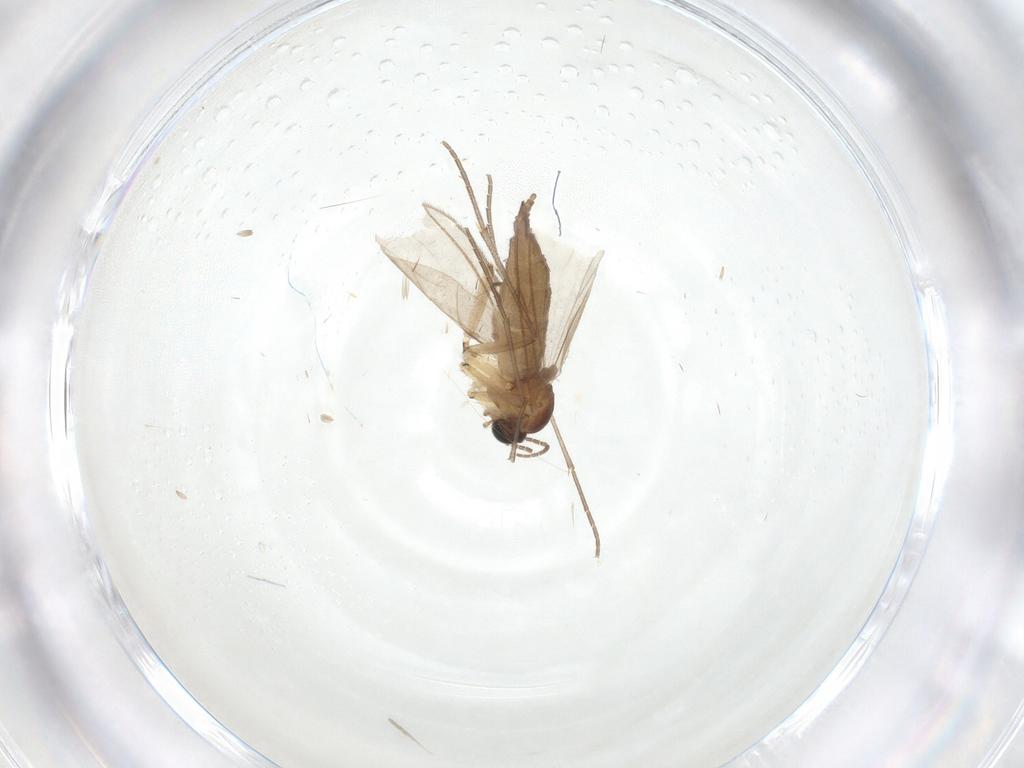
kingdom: Animalia
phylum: Arthropoda
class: Insecta
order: Diptera
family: Sciaridae
